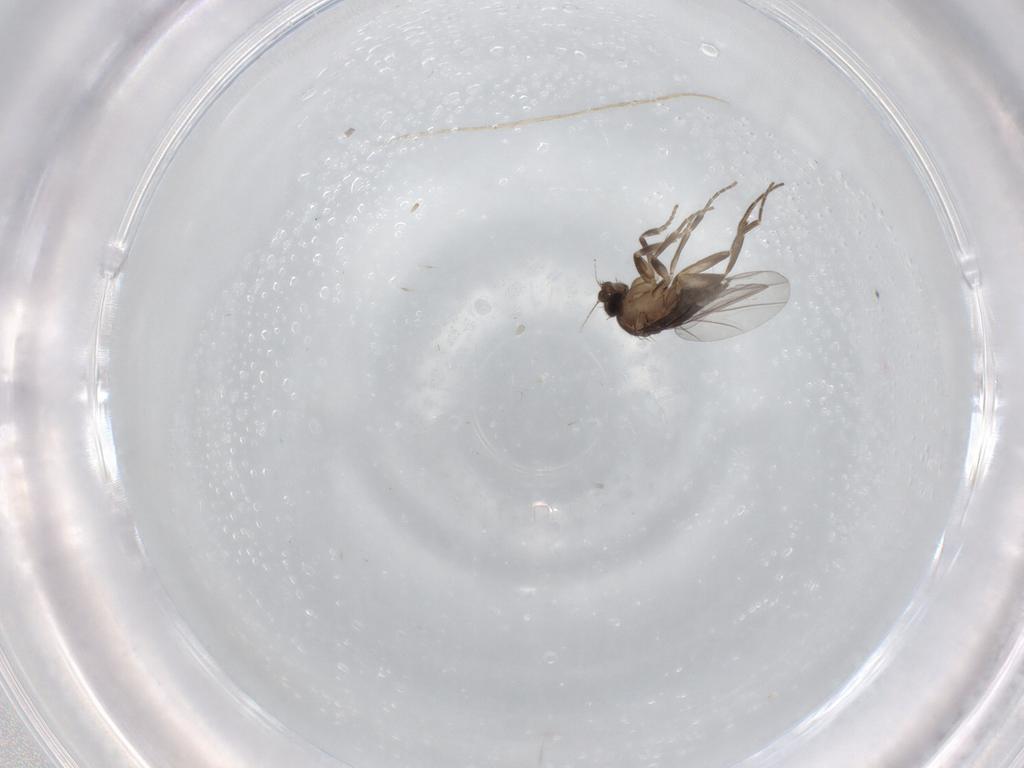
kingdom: Animalia
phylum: Arthropoda
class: Insecta
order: Diptera
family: Phoridae
